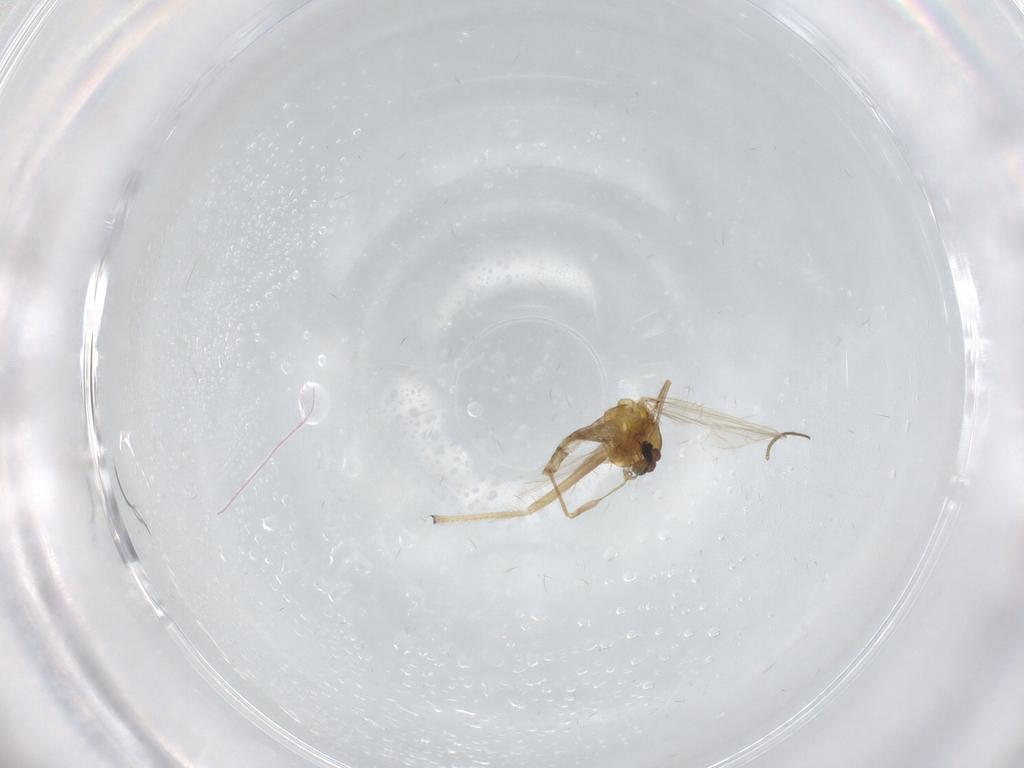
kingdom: Animalia
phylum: Arthropoda
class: Insecta
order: Diptera
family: Chironomidae
